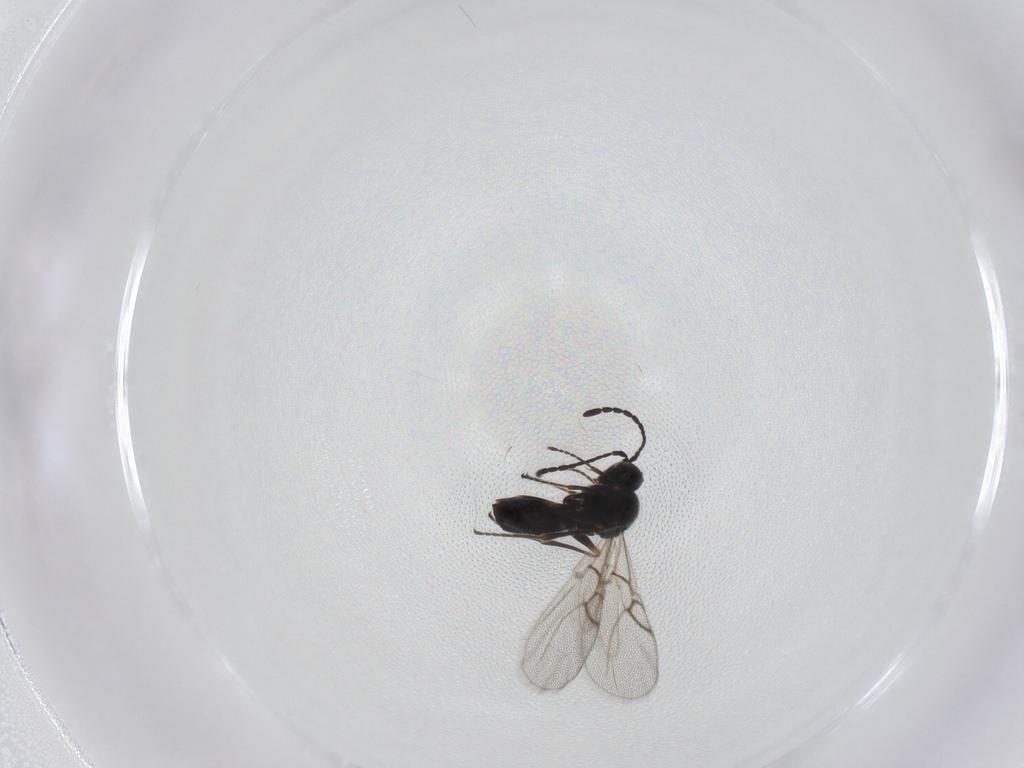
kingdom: Animalia
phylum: Arthropoda
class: Insecta
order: Hymenoptera
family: Figitidae
